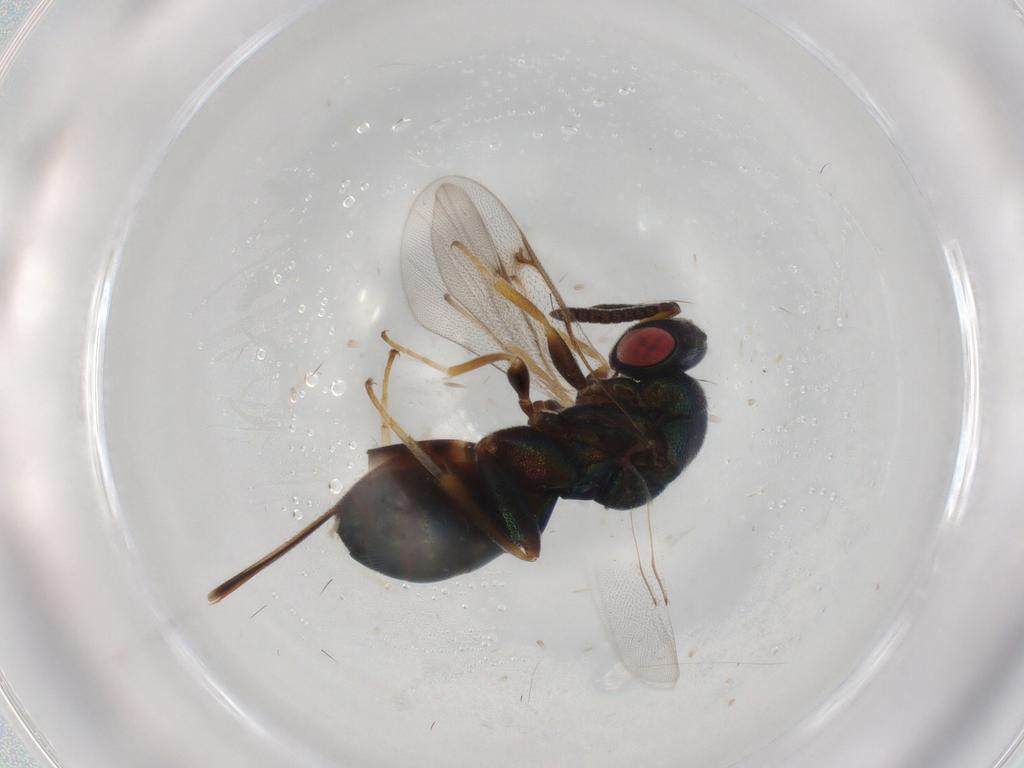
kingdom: Animalia
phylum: Arthropoda
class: Insecta
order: Hymenoptera
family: Torymidae
